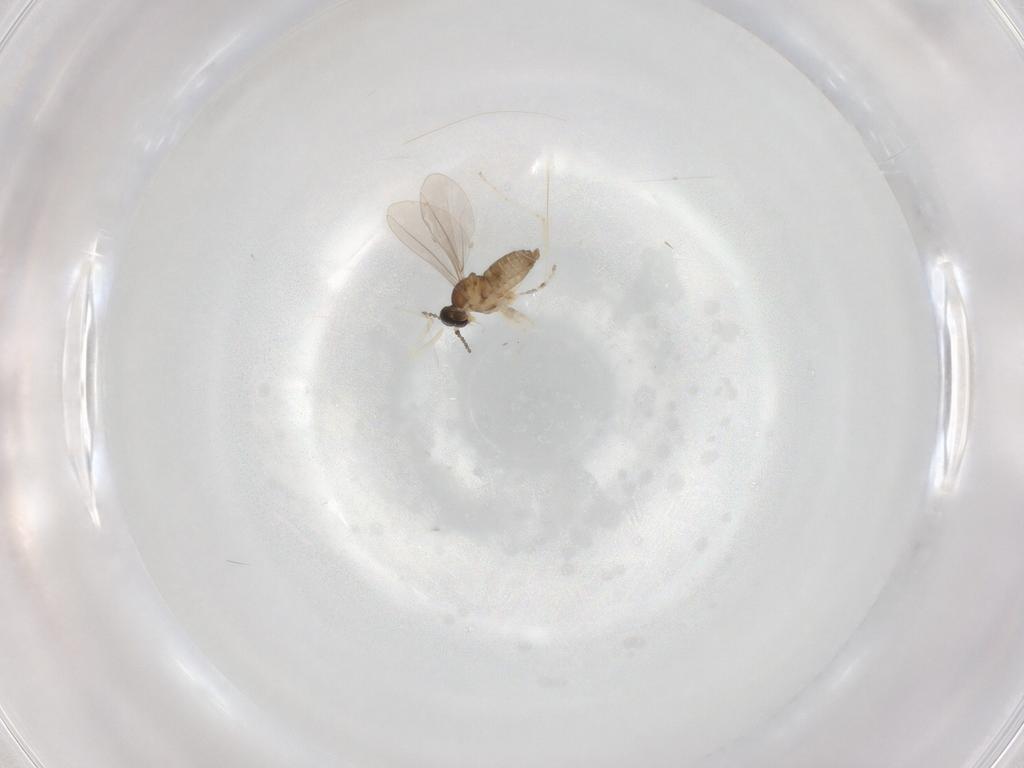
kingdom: Animalia
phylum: Arthropoda
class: Insecta
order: Diptera
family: Cecidomyiidae
